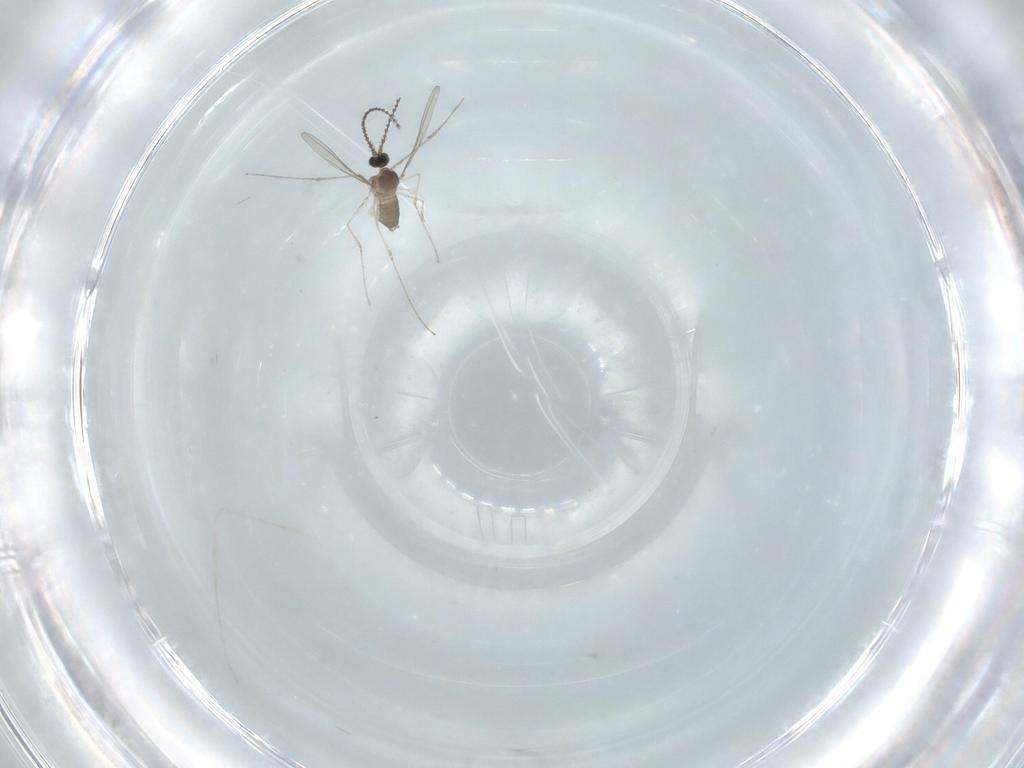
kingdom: Animalia
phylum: Arthropoda
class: Insecta
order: Diptera
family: Cecidomyiidae
